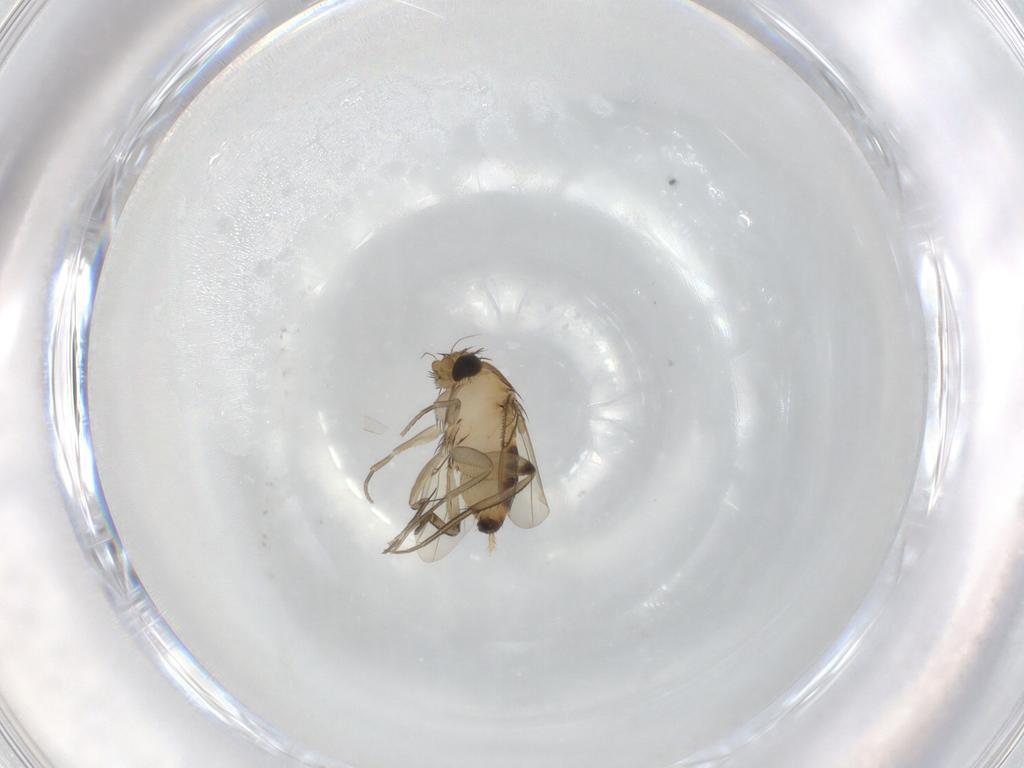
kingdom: Animalia
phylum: Arthropoda
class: Insecta
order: Diptera
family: Phoridae
